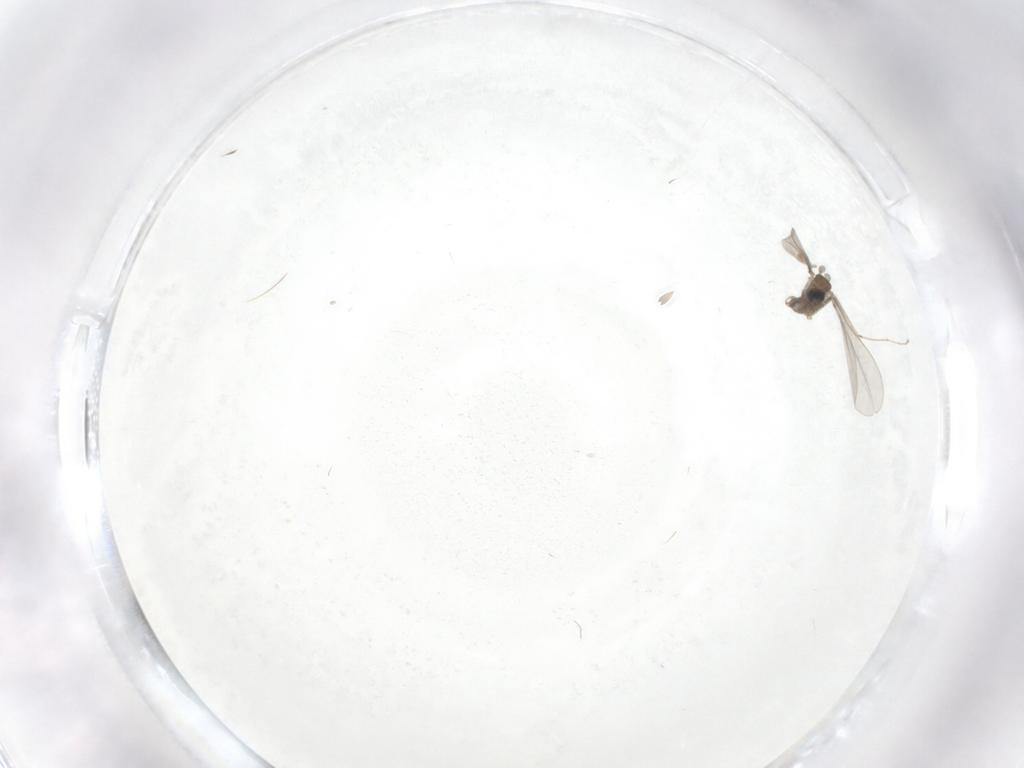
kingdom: Animalia
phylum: Arthropoda
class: Insecta
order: Diptera
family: Cecidomyiidae
